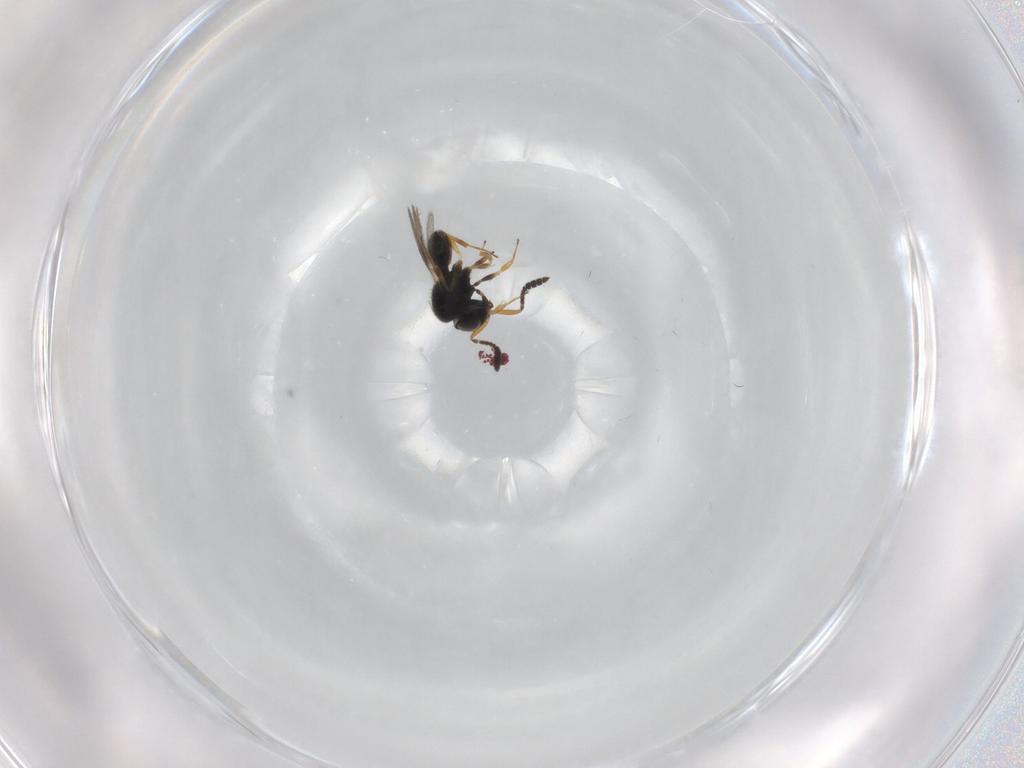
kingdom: Animalia
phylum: Arthropoda
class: Insecta
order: Hymenoptera
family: Scelionidae
